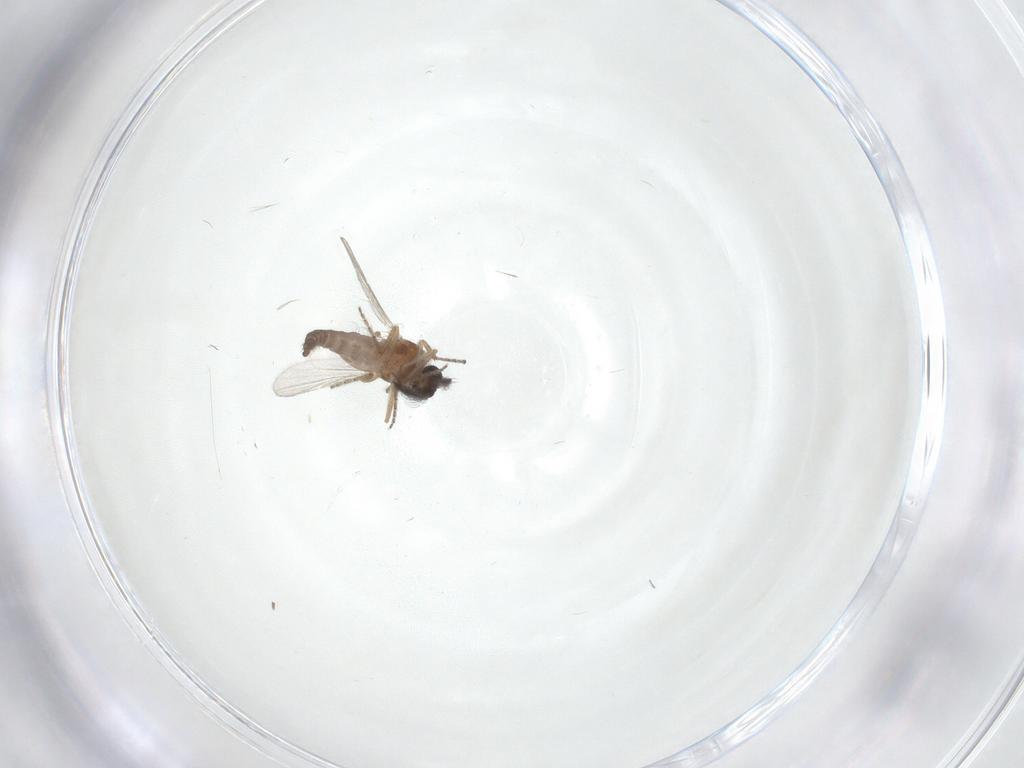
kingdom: Animalia
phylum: Arthropoda
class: Insecta
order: Diptera
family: Ceratopogonidae
